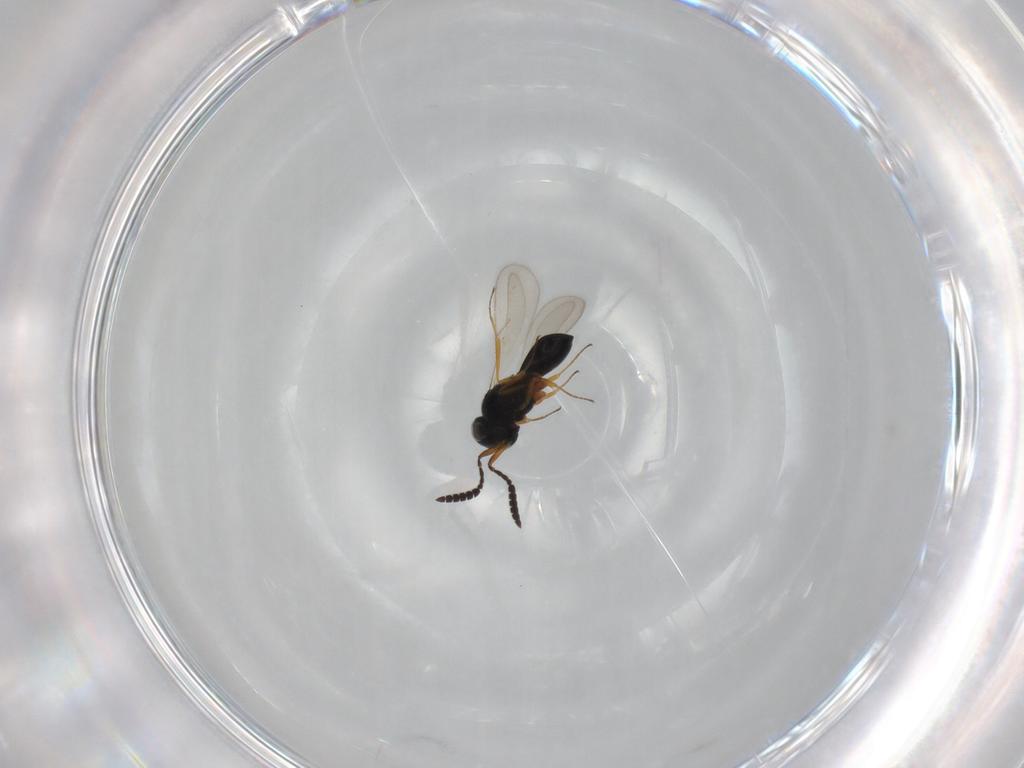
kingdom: Animalia
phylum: Arthropoda
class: Insecta
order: Hymenoptera
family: Scelionidae
